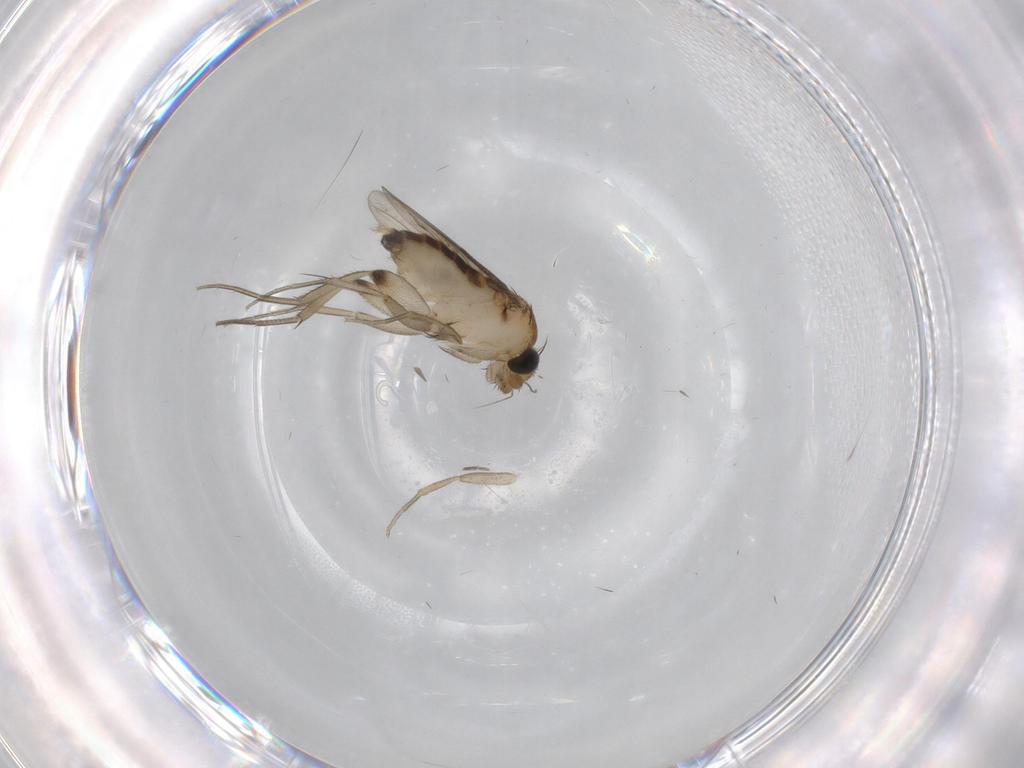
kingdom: Animalia
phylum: Arthropoda
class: Insecta
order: Diptera
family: Phoridae
